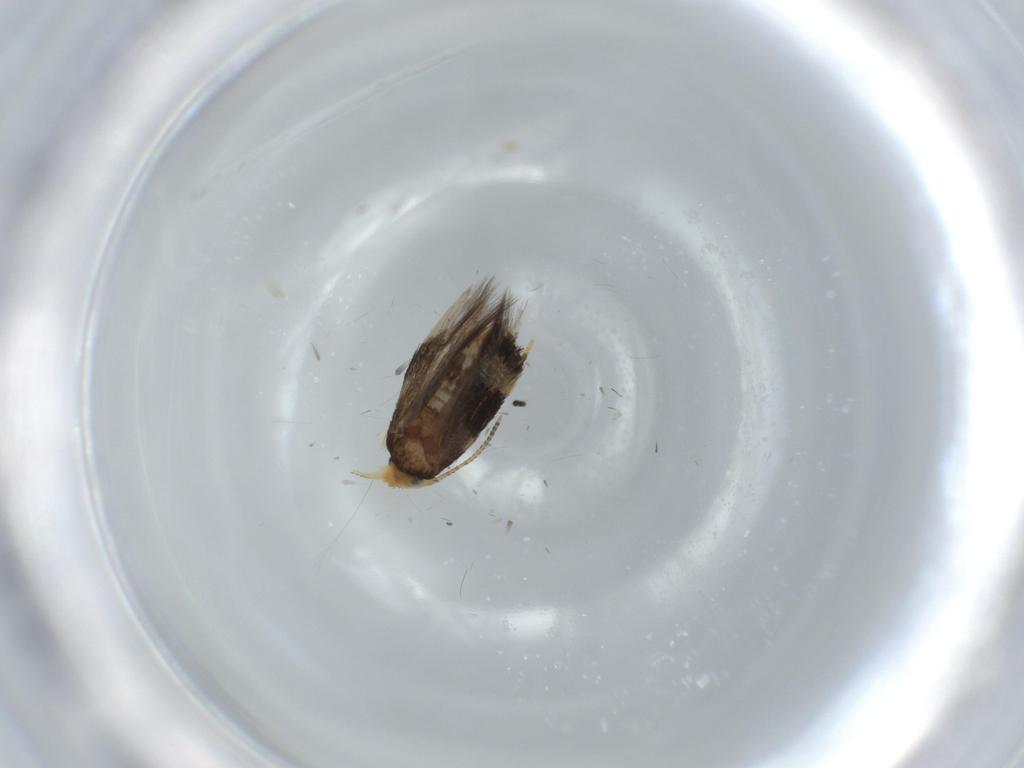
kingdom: Animalia
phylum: Arthropoda
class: Insecta
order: Lepidoptera
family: Nepticulidae
